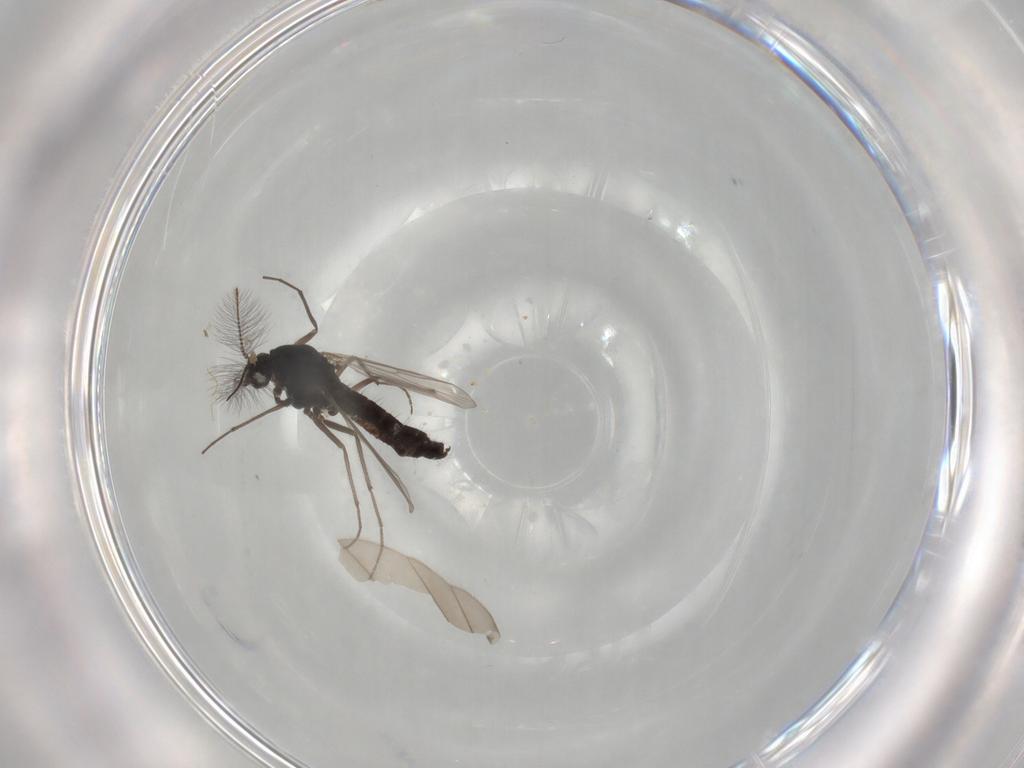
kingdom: Animalia
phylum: Arthropoda
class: Insecta
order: Diptera
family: Chironomidae
